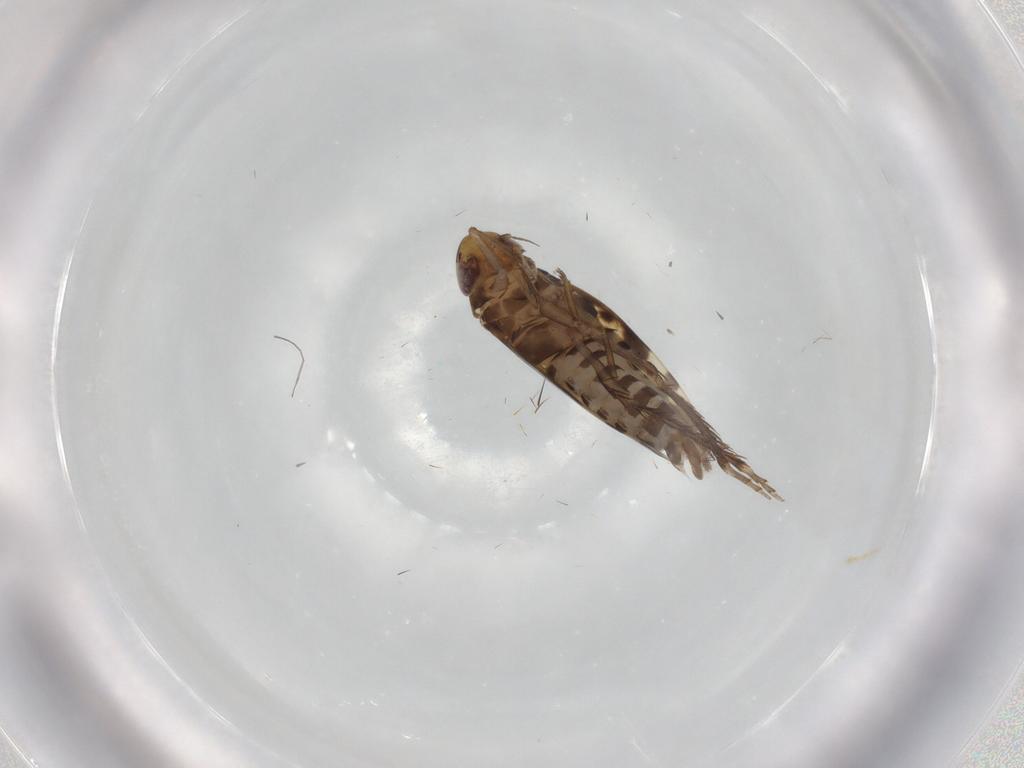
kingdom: Animalia
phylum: Arthropoda
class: Insecta
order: Hemiptera
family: Cicadellidae
